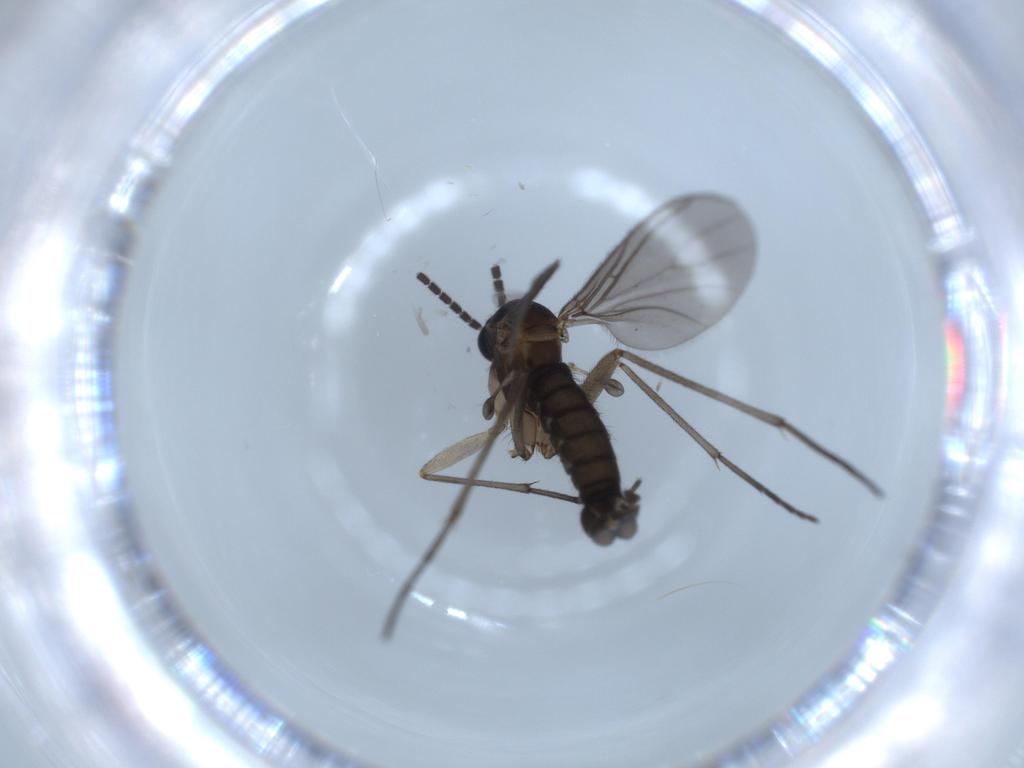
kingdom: Animalia
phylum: Arthropoda
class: Insecta
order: Diptera
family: Sciaridae
